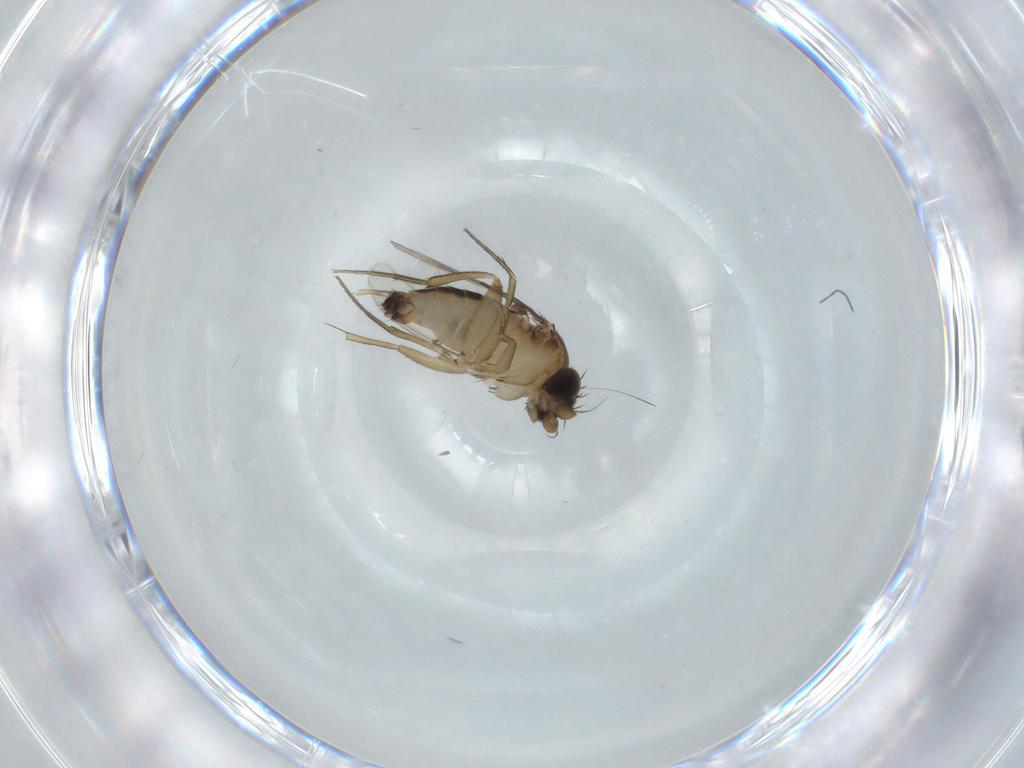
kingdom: Animalia
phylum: Arthropoda
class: Insecta
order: Diptera
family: Phoridae
